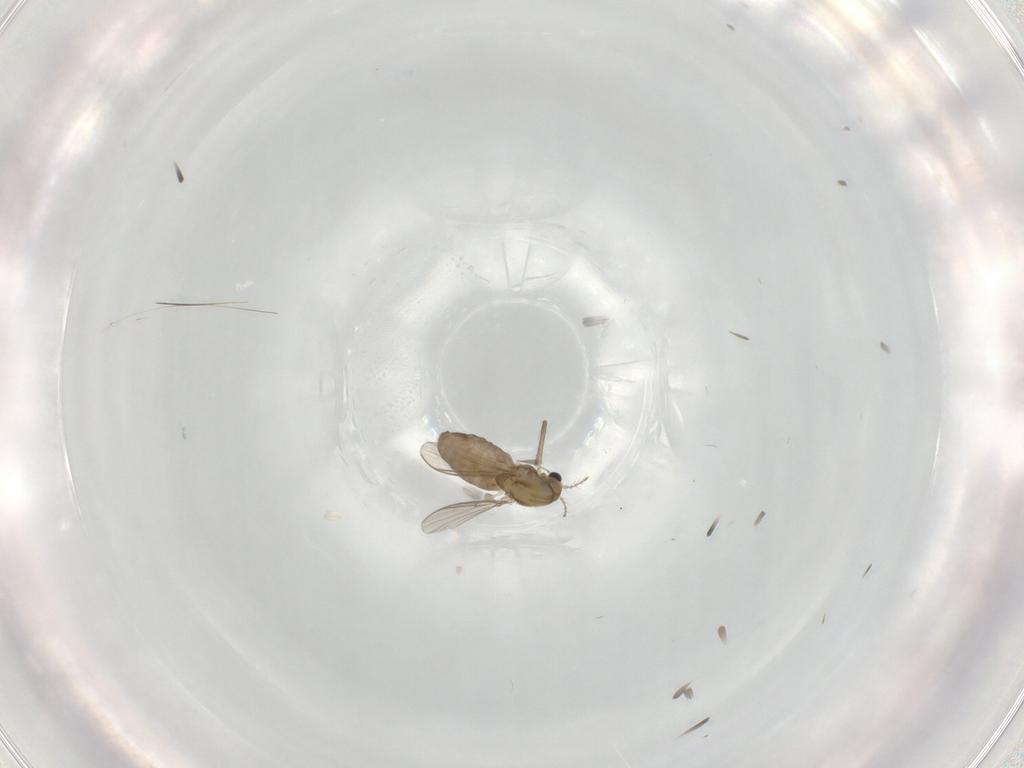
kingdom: Animalia
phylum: Arthropoda
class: Insecta
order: Diptera
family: Chironomidae
